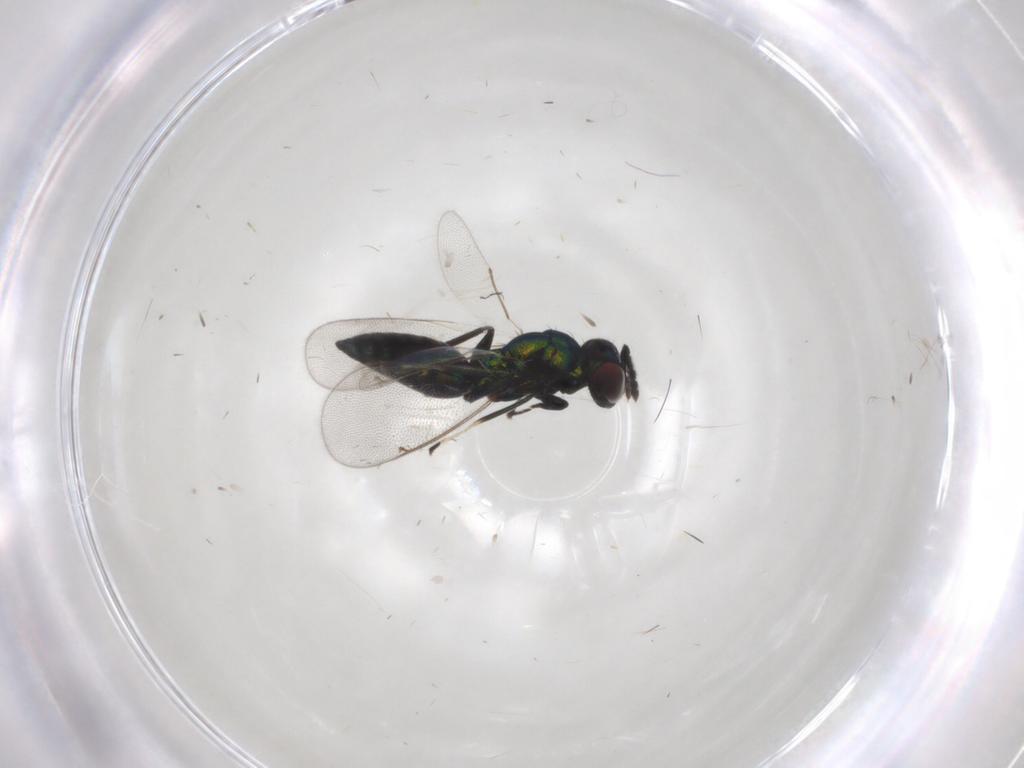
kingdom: Animalia
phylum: Arthropoda
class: Insecta
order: Hymenoptera
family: Eulophidae
